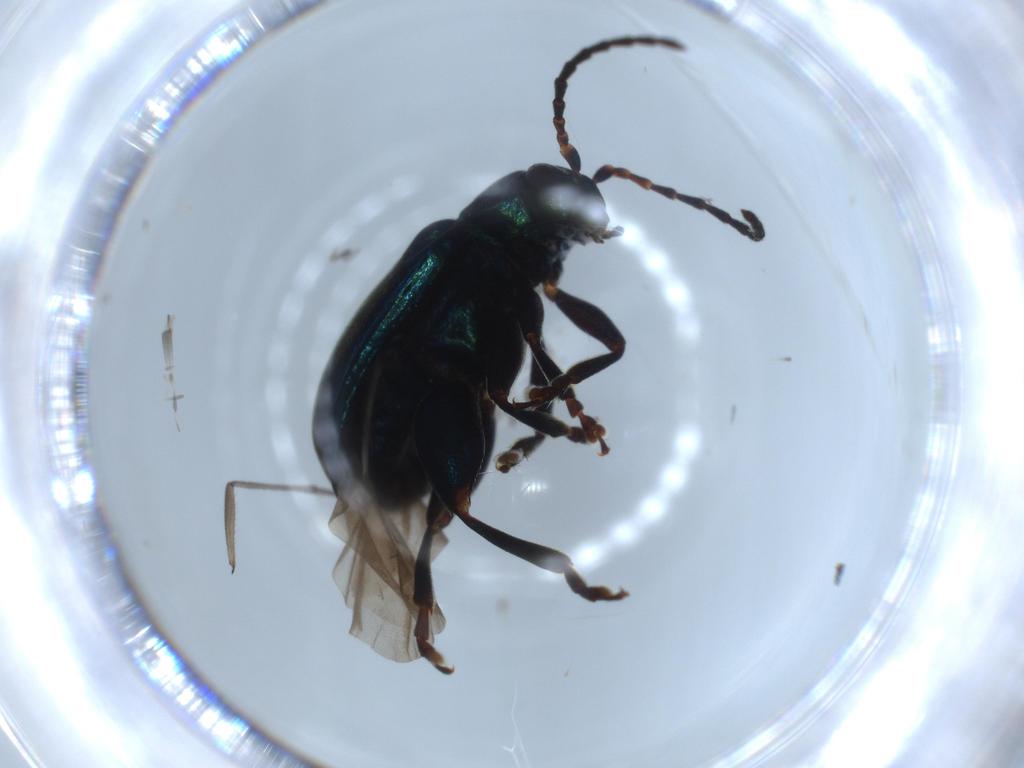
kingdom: Animalia
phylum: Arthropoda
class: Insecta
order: Coleoptera
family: Chrysomelidae
